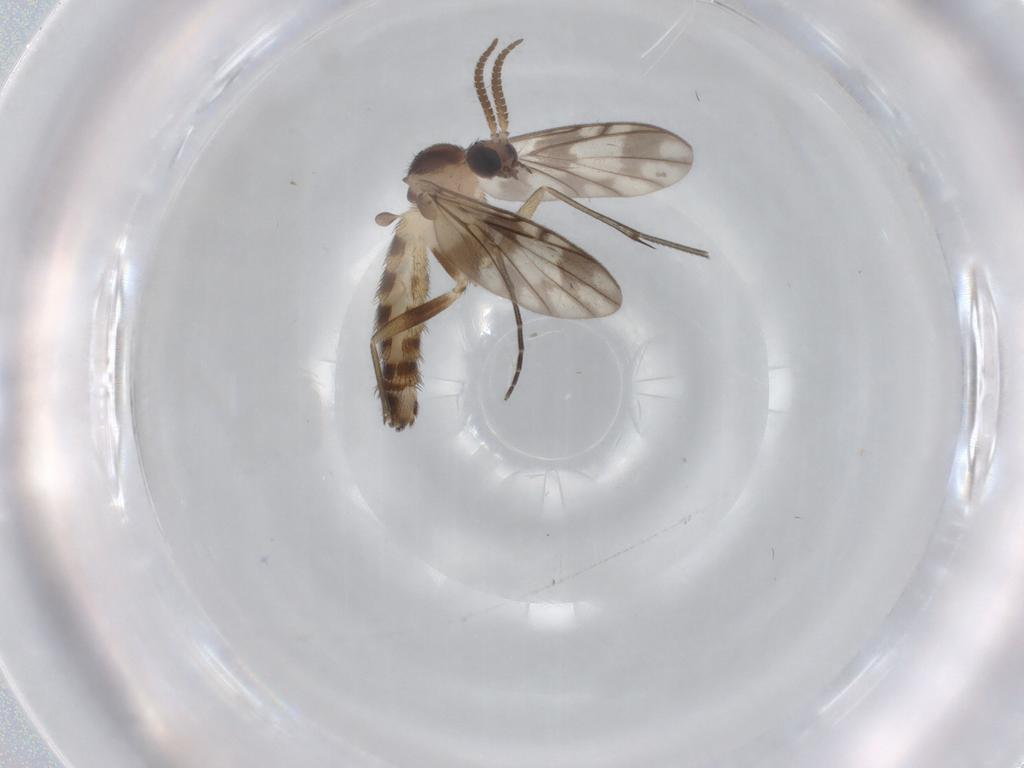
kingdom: Animalia
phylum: Arthropoda
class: Insecta
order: Diptera
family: Keroplatidae
